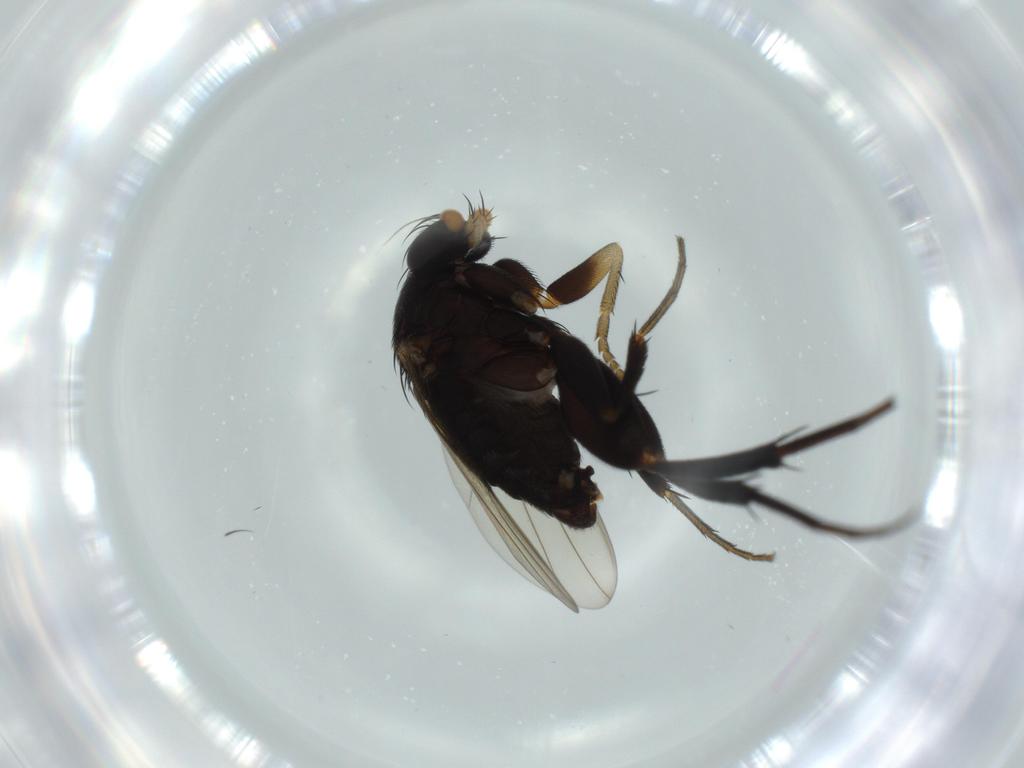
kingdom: Animalia
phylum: Arthropoda
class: Insecta
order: Diptera
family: Phoridae
